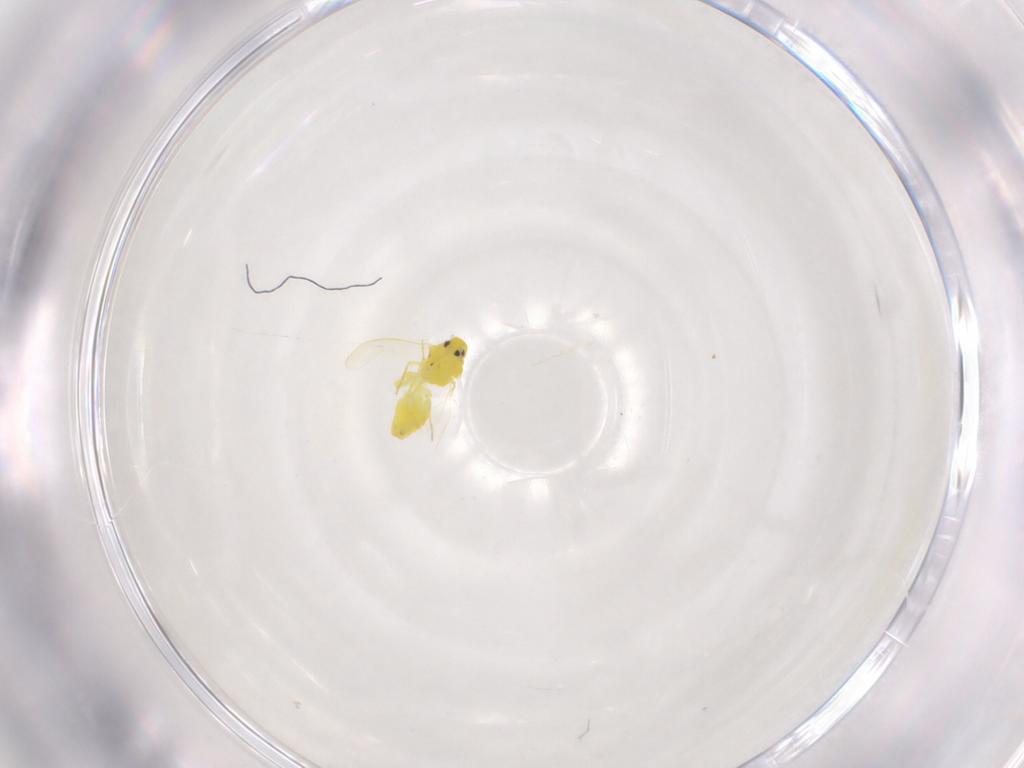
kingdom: Animalia
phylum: Arthropoda
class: Insecta
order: Hemiptera
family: Aleyrodidae
